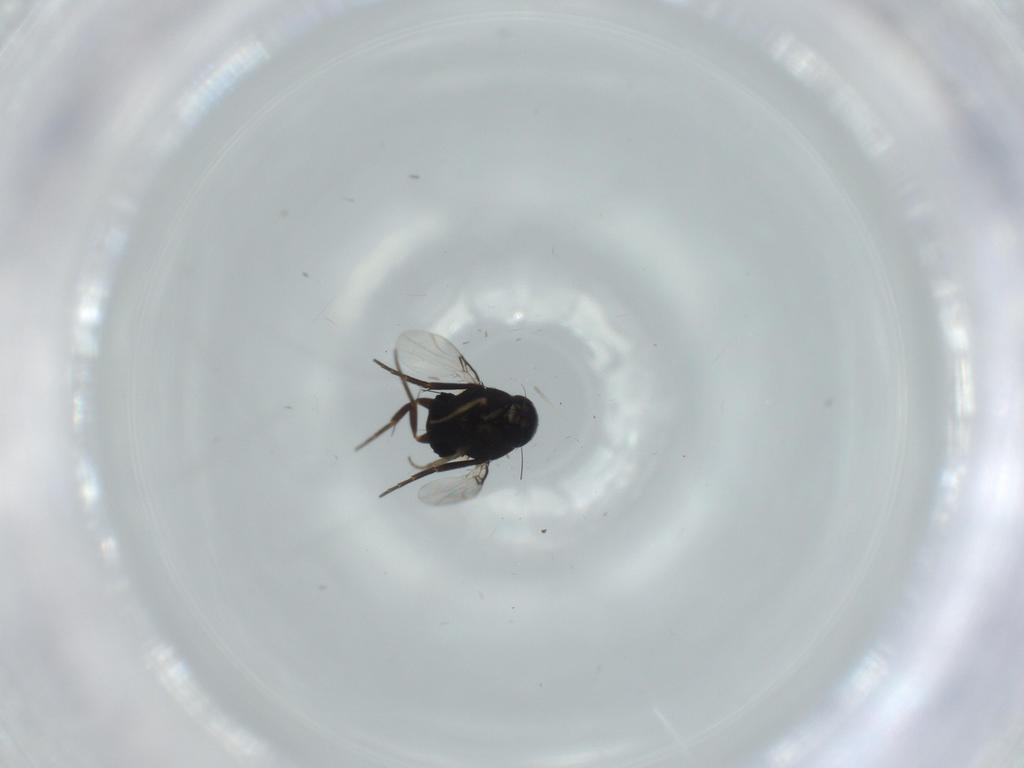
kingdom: Animalia
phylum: Arthropoda
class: Insecta
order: Diptera
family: Phoridae
